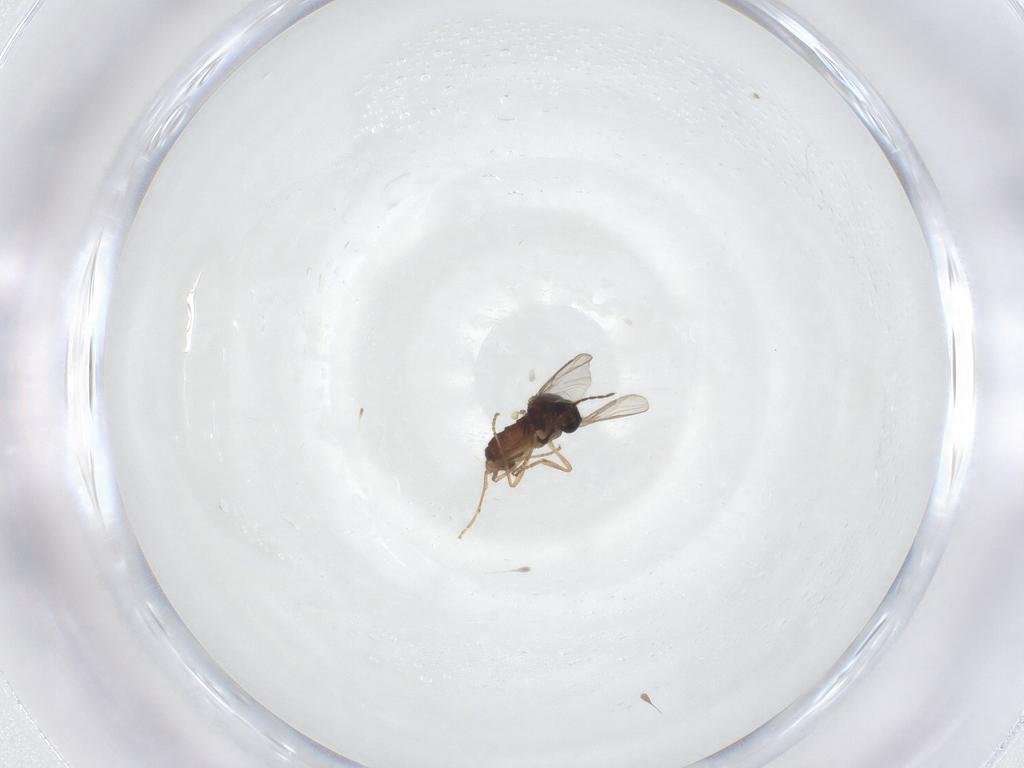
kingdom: Animalia
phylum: Arthropoda
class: Insecta
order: Diptera
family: Ceratopogonidae
